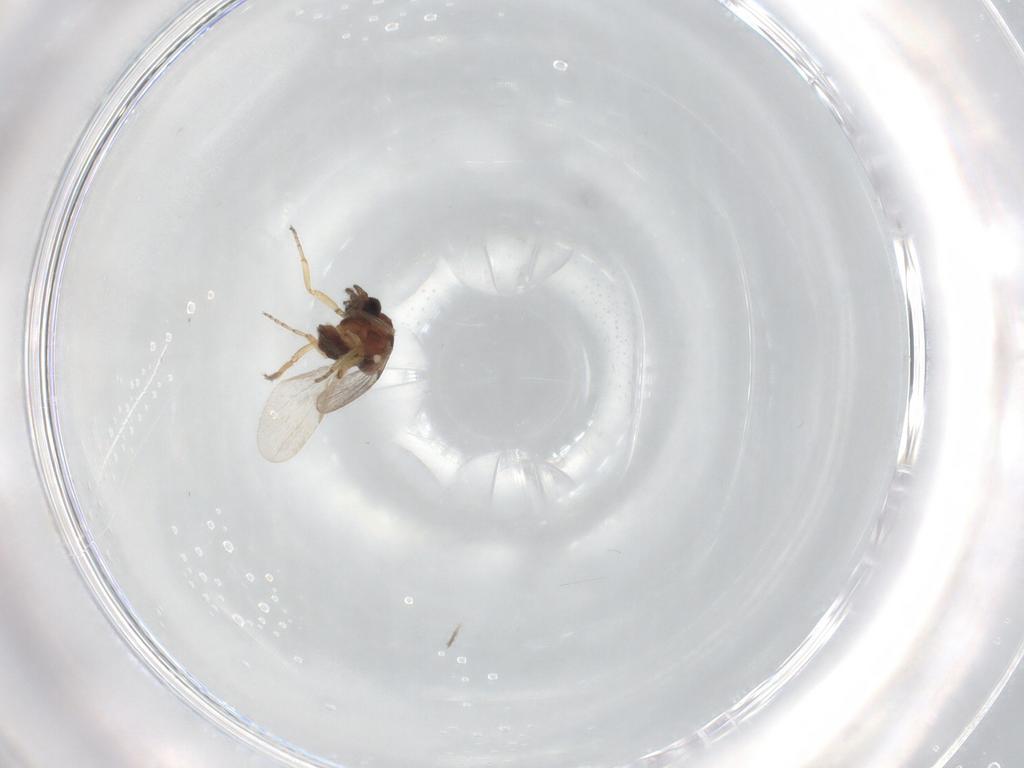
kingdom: Animalia
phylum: Arthropoda
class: Insecta
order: Diptera
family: Ceratopogonidae
